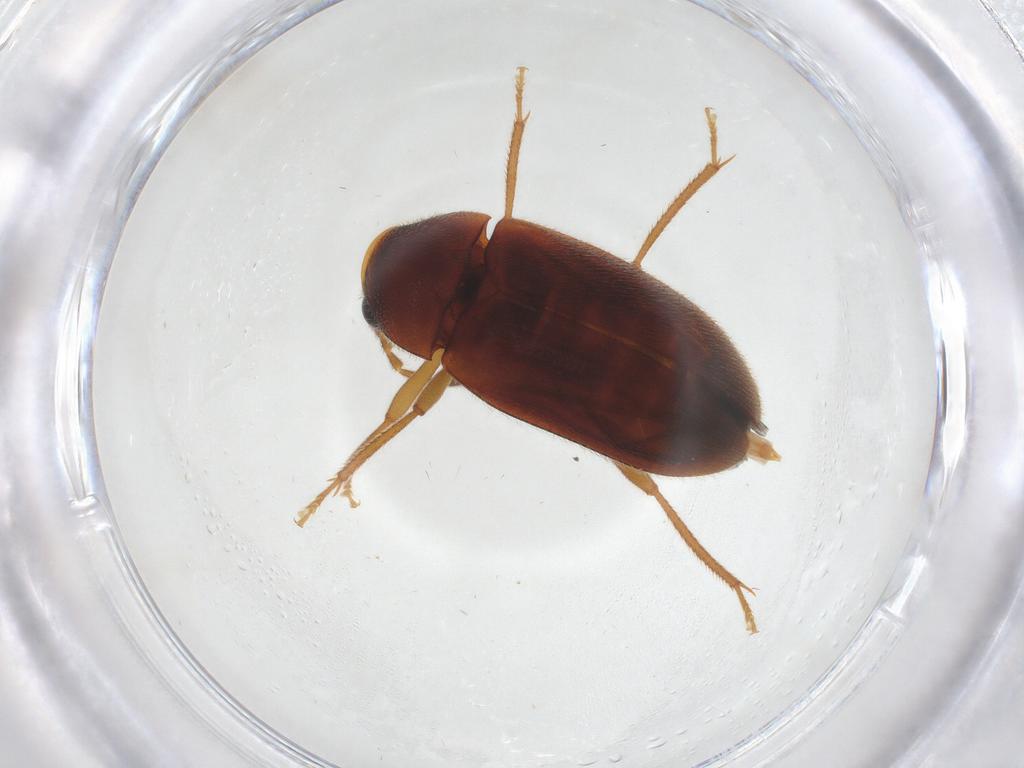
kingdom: Animalia
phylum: Arthropoda
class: Insecta
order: Coleoptera
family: Ptilodactylidae
